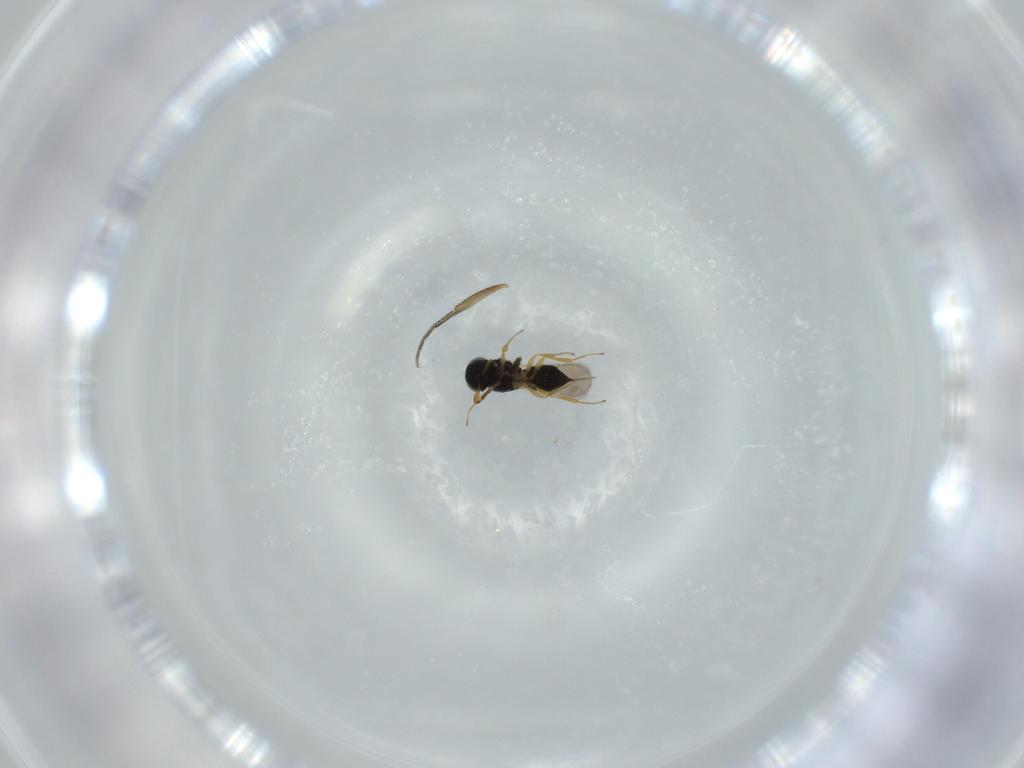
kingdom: Animalia
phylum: Arthropoda
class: Insecta
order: Hymenoptera
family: Scelionidae
